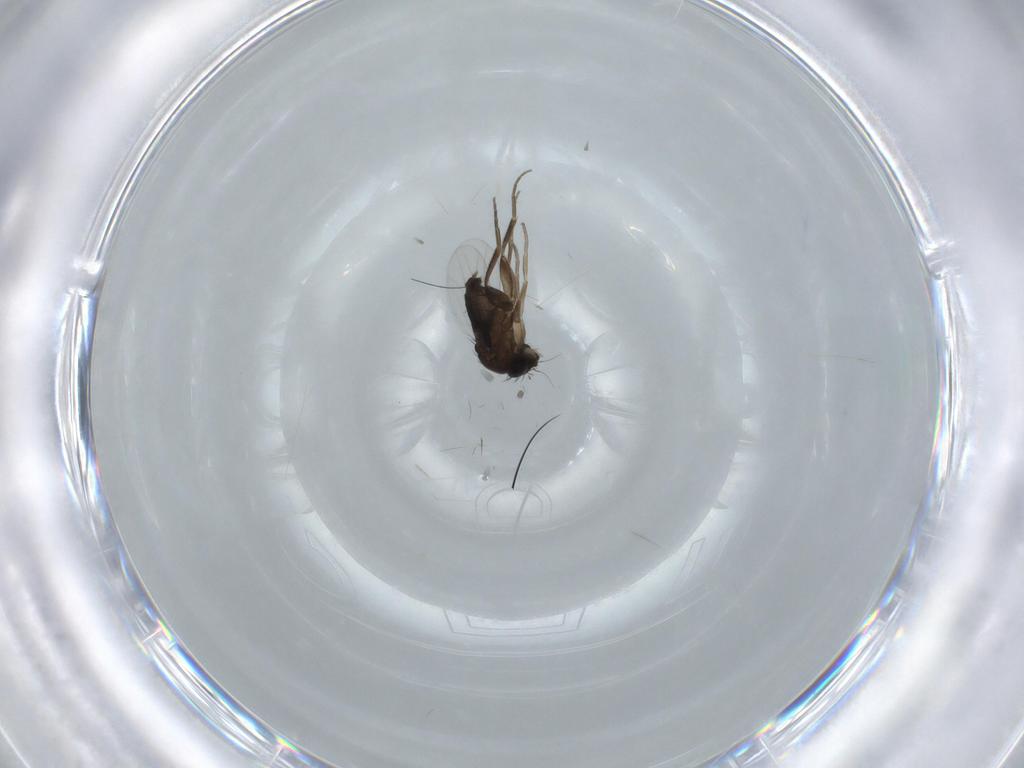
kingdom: Animalia
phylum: Arthropoda
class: Insecta
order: Diptera
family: Phoridae
